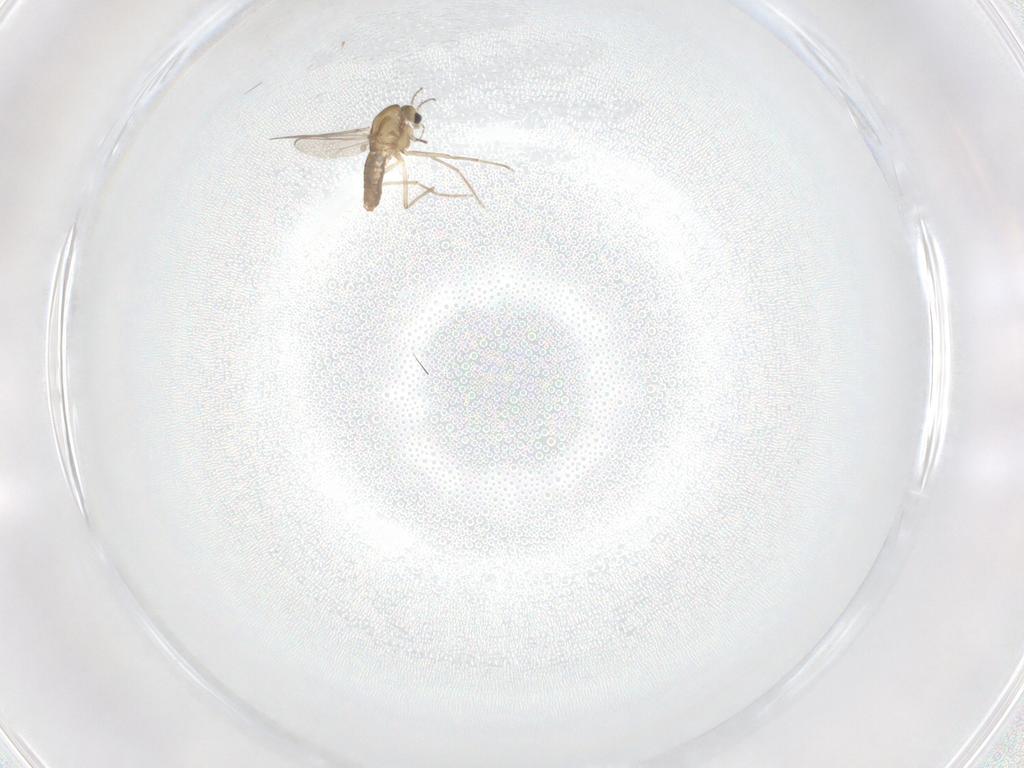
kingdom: Animalia
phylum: Arthropoda
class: Insecta
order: Diptera
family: Chironomidae
